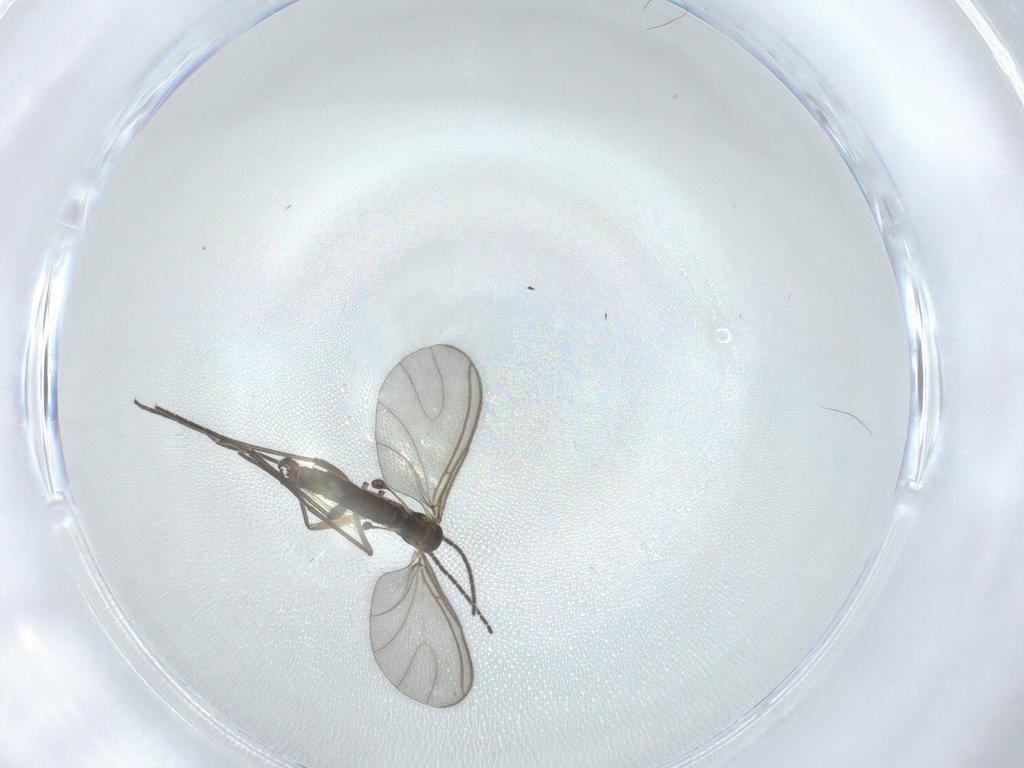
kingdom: Animalia
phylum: Arthropoda
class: Insecta
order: Diptera
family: Sciaridae
